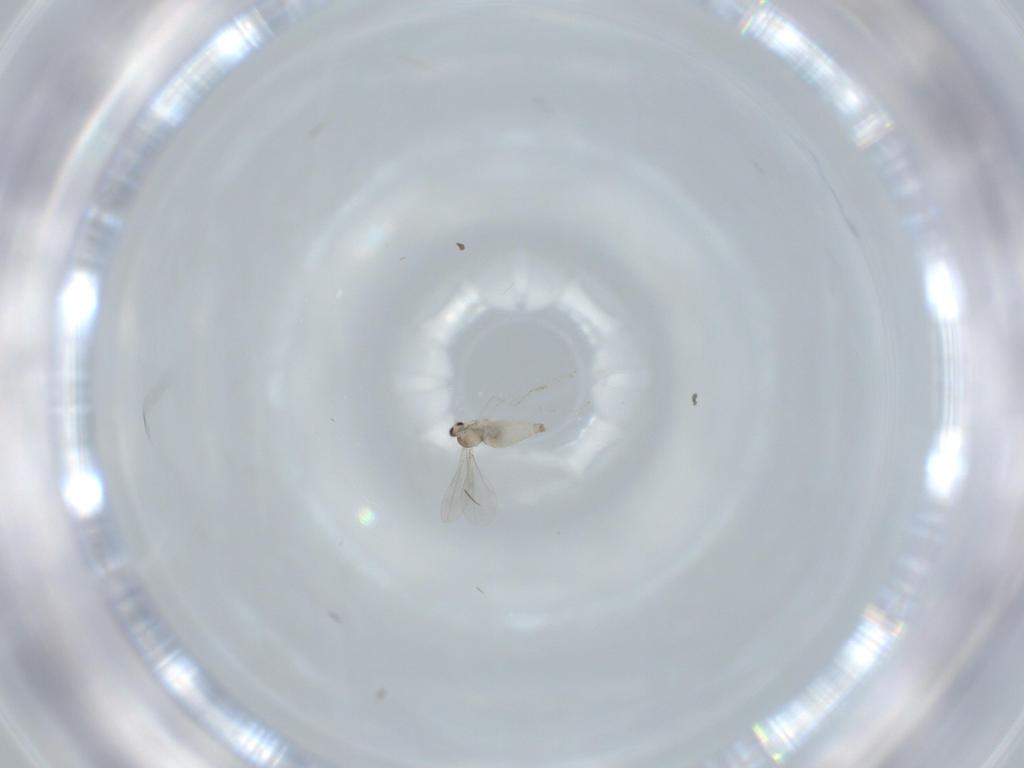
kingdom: Animalia
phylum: Arthropoda
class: Insecta
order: Diptera
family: Cecidomyiidae
